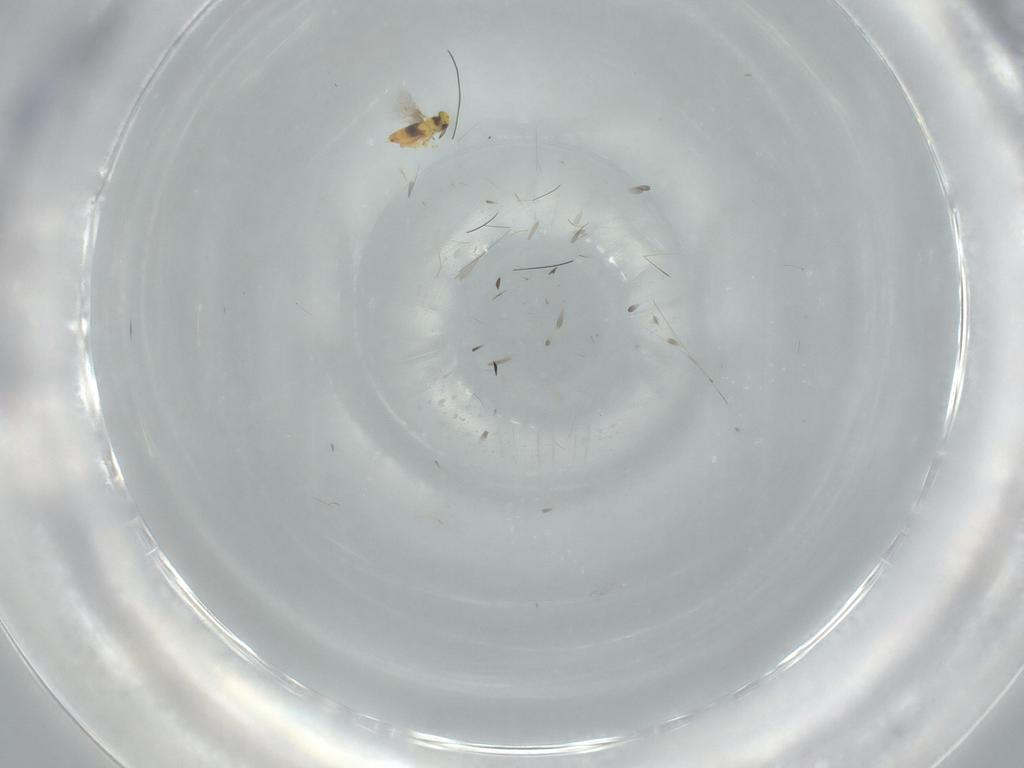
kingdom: Animalia
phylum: Arthropoda
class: Insecta
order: Hymenoptera
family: Signiphoridae
